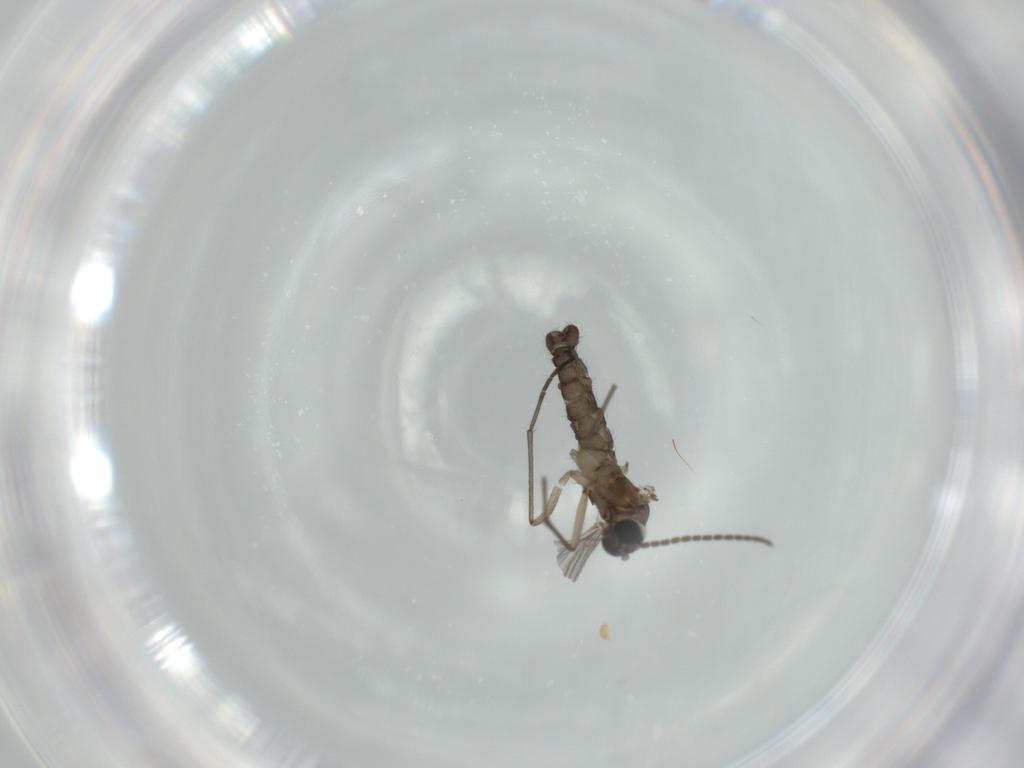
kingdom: Animalia
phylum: Arthropoda
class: Insecta
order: Diptera
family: Sciaridae
